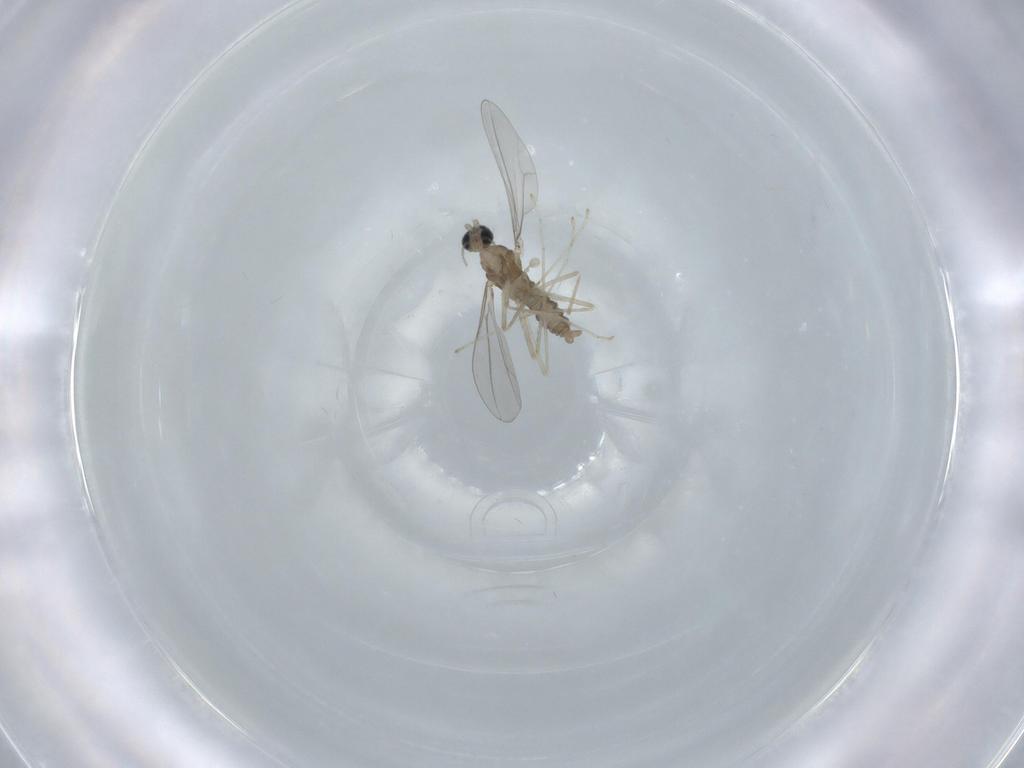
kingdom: Animalia
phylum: Arthropoda
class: Insecta
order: Diptera
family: Cecidomyiidae
